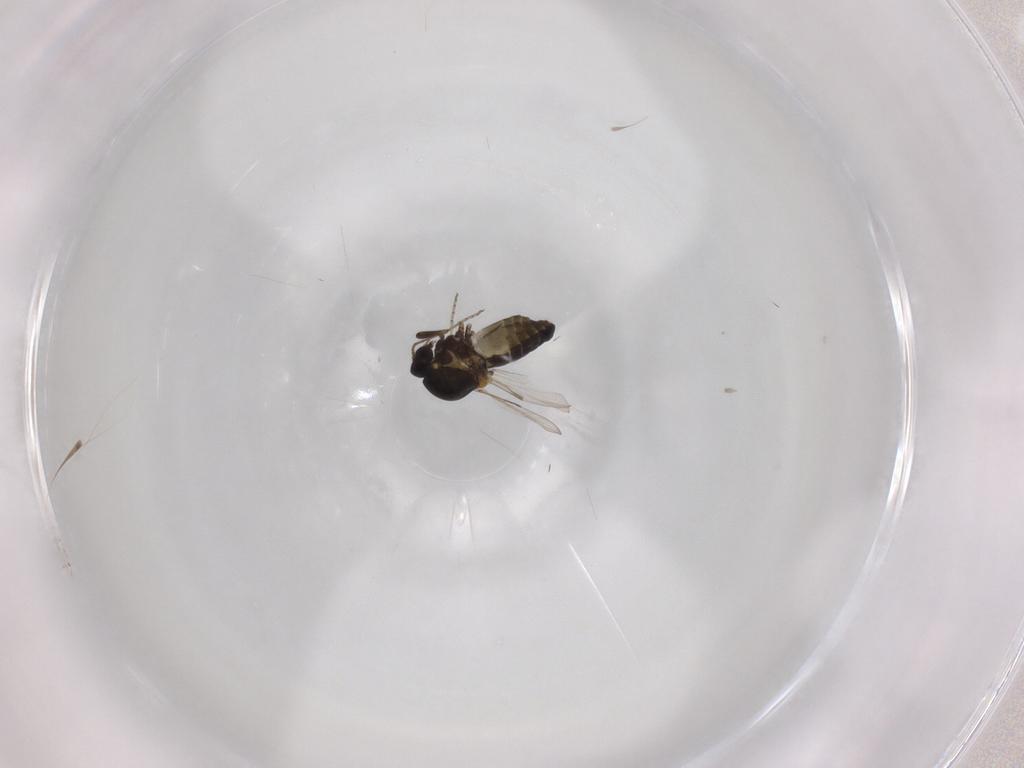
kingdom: Animalia
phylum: Arthropoda
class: Insecta
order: Diptera
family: Ceratopogonidae
